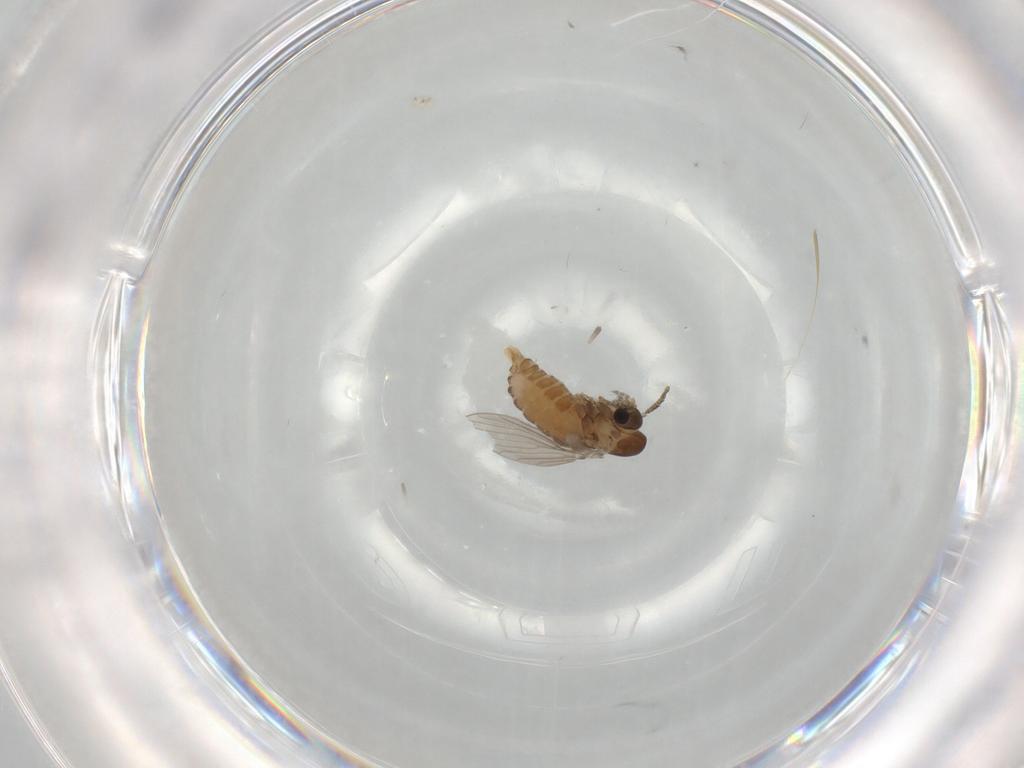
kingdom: Animalia
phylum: Arthropoda
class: Insecta
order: Diptera
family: Psychodidae
